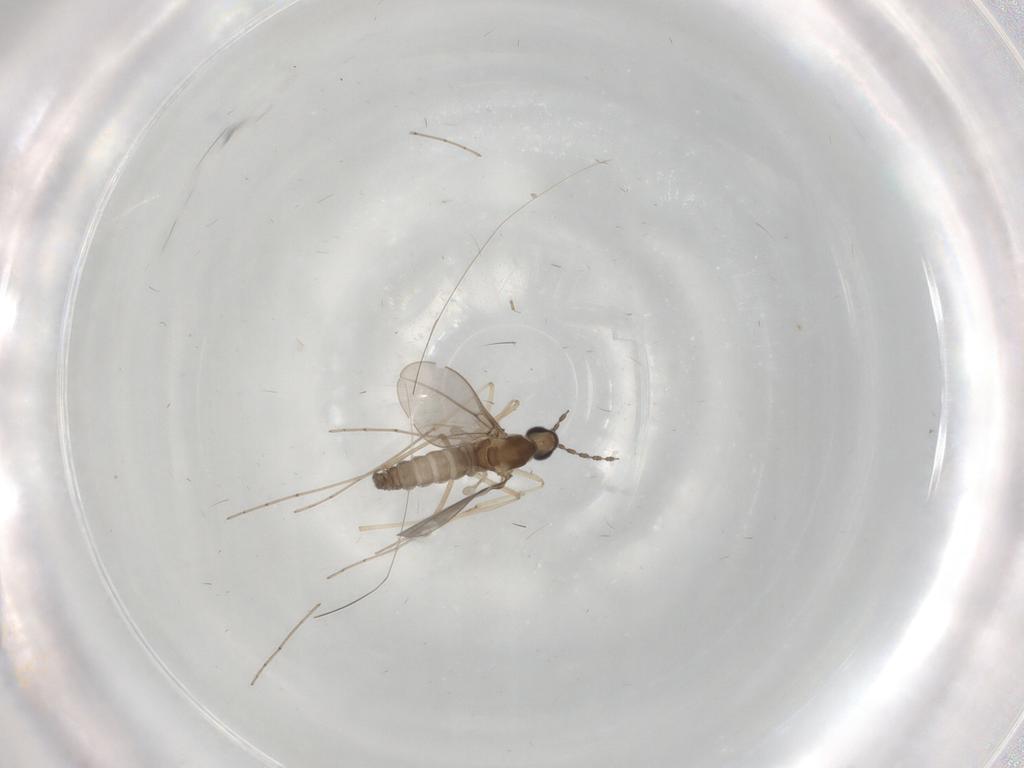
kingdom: Animalia
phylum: Arthropoda
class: Insecta
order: Diptera
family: Cecidomyiidae
